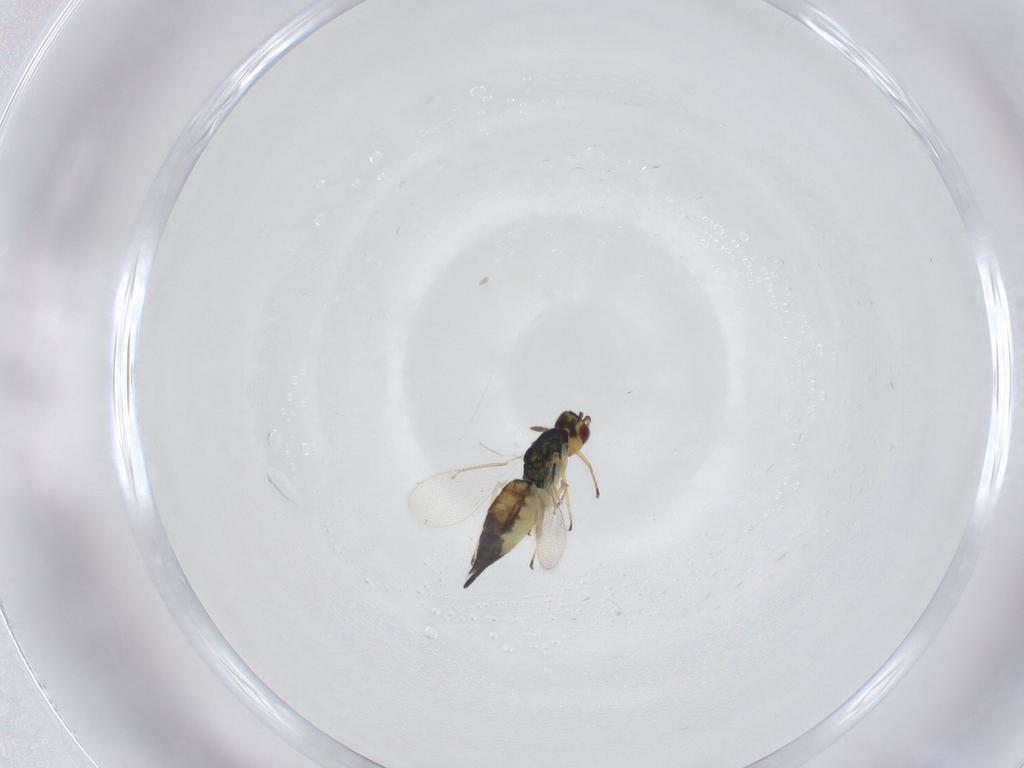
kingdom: Animalia
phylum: Arthropoda
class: Insecta
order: Hymenoptera
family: Eulophidae
